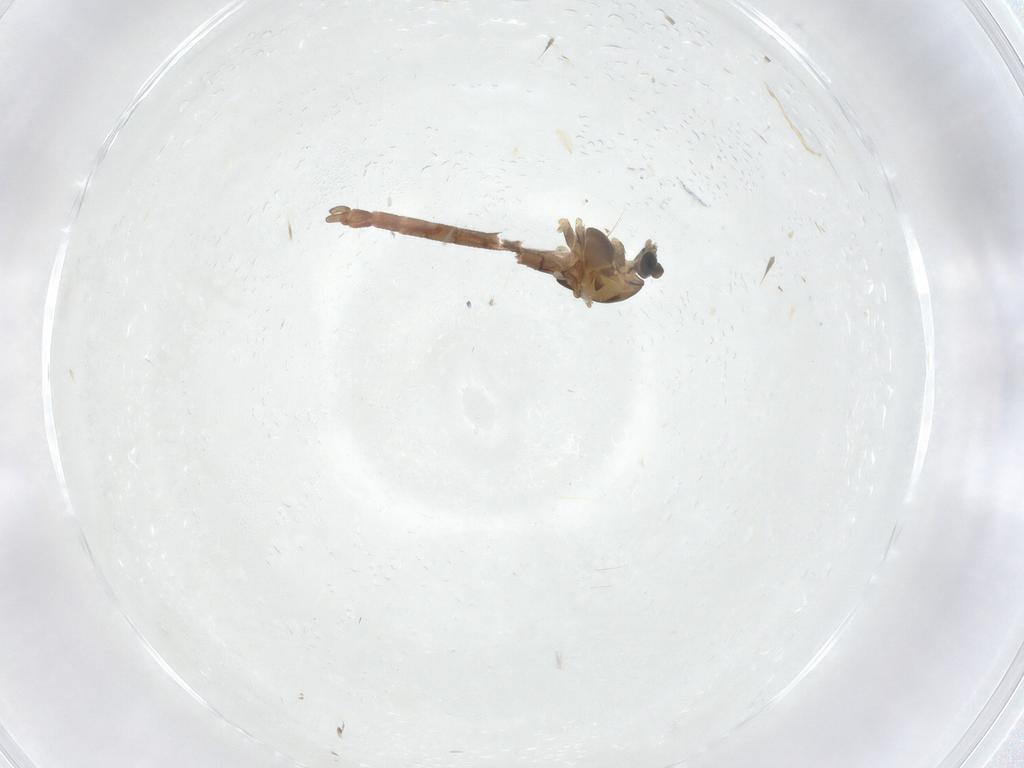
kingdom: Animalia
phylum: Arthropoda
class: Insecta
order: Diptera
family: Chironomidae
